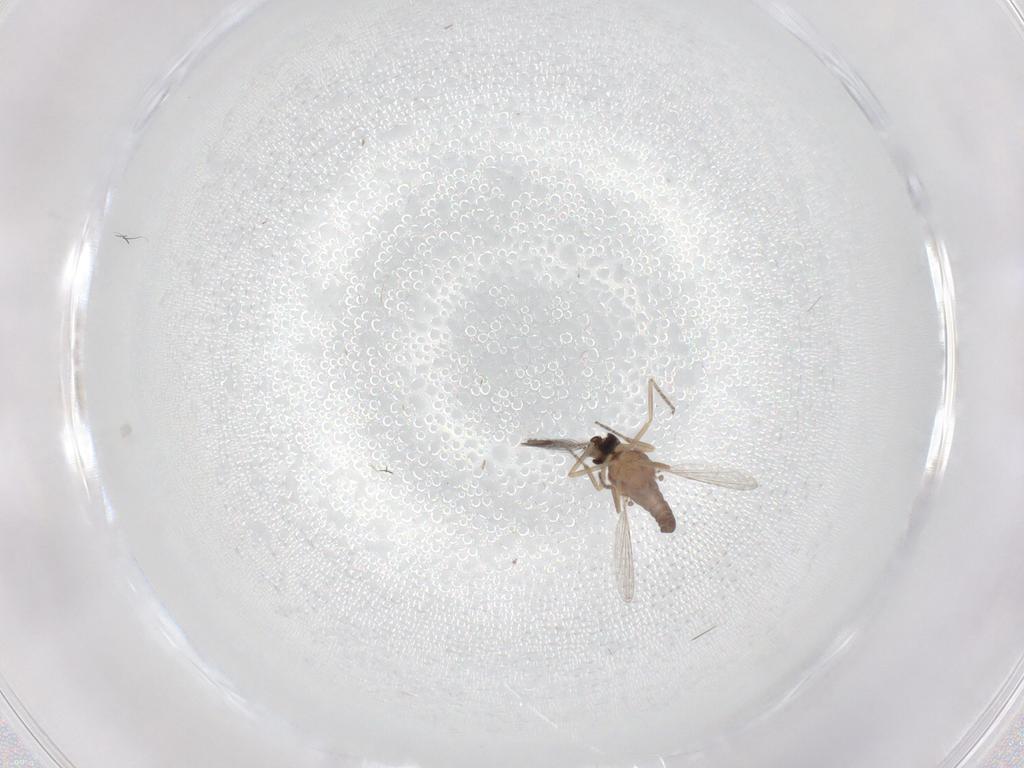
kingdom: Animalia
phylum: Arthropoda
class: Insecta
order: Diptera
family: Ceratopogonidae
